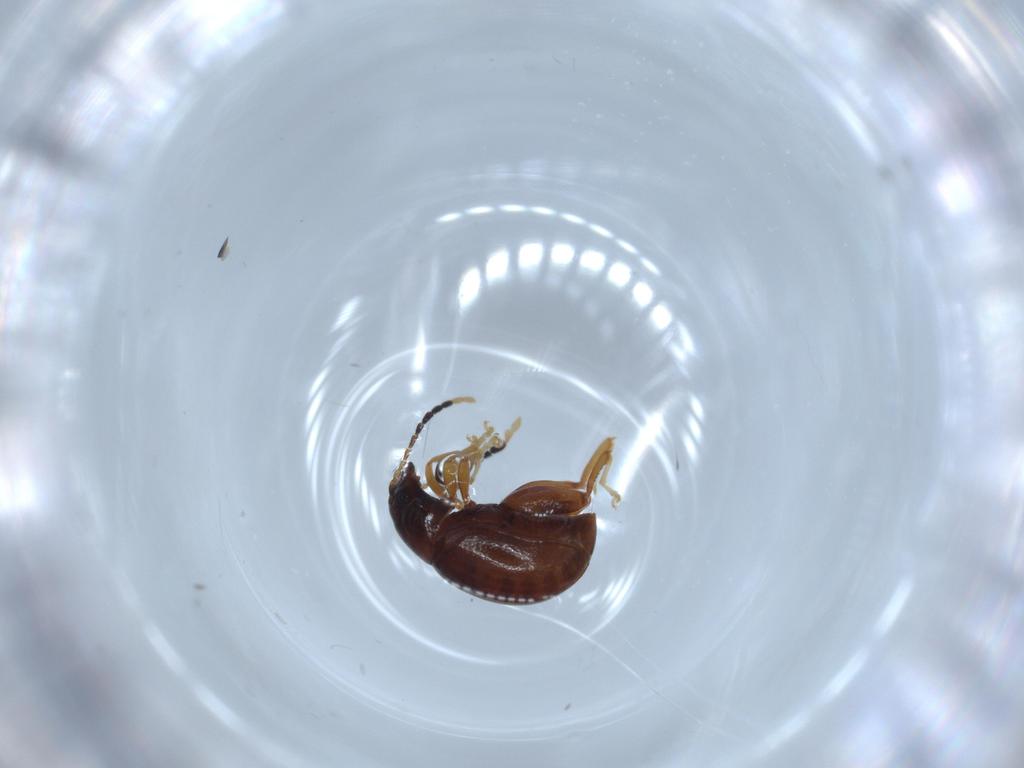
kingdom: Animalia
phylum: Arthropoda
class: Insecta
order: Coleoptera
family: Chrysomelidae
